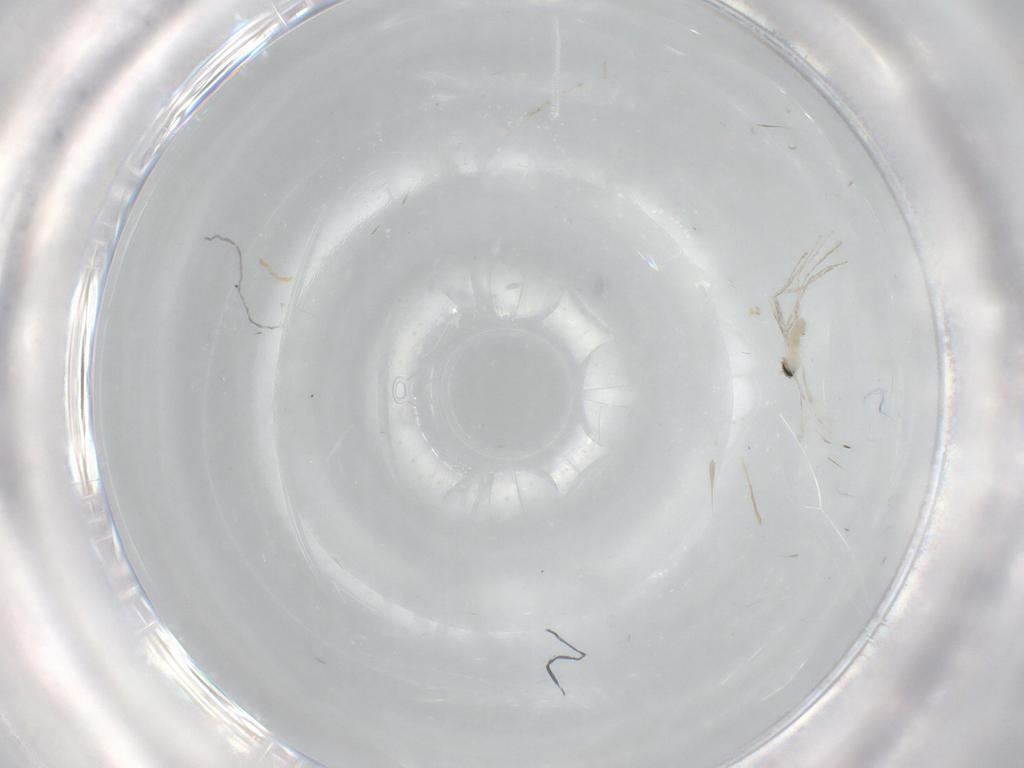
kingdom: Animalia
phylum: Arthropoda
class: Insecta
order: Diptera
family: Cecidomyiidae
